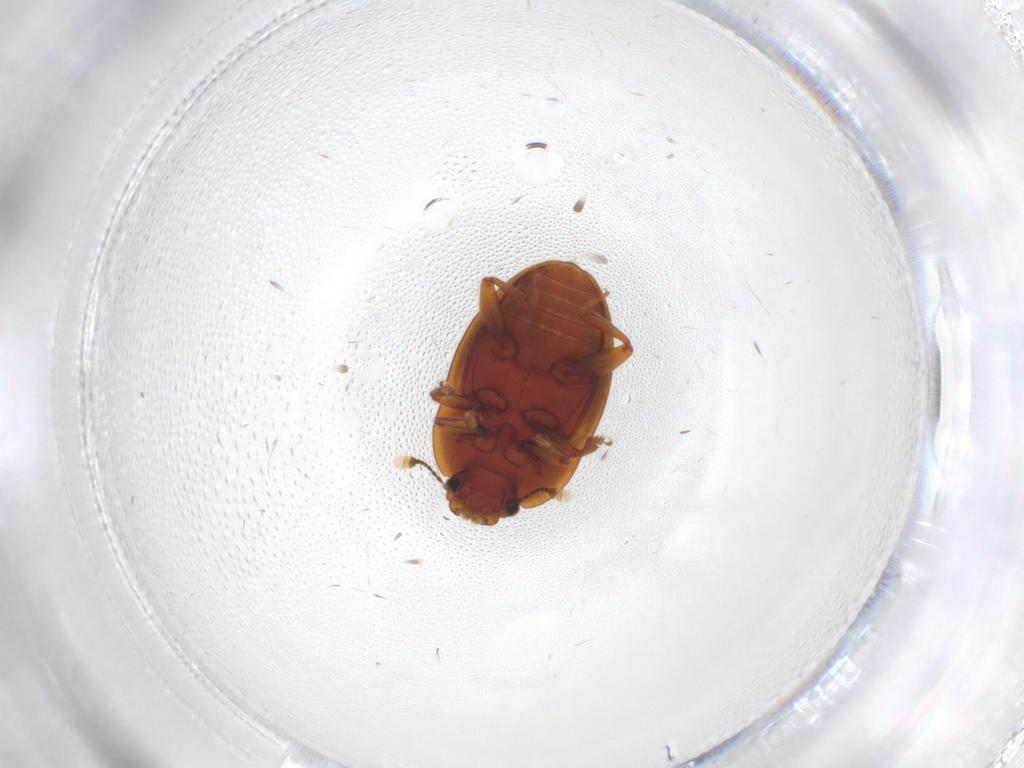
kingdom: Animalia
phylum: Arthropoda
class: Insecta
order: Coleoptera
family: Nitidulidae
